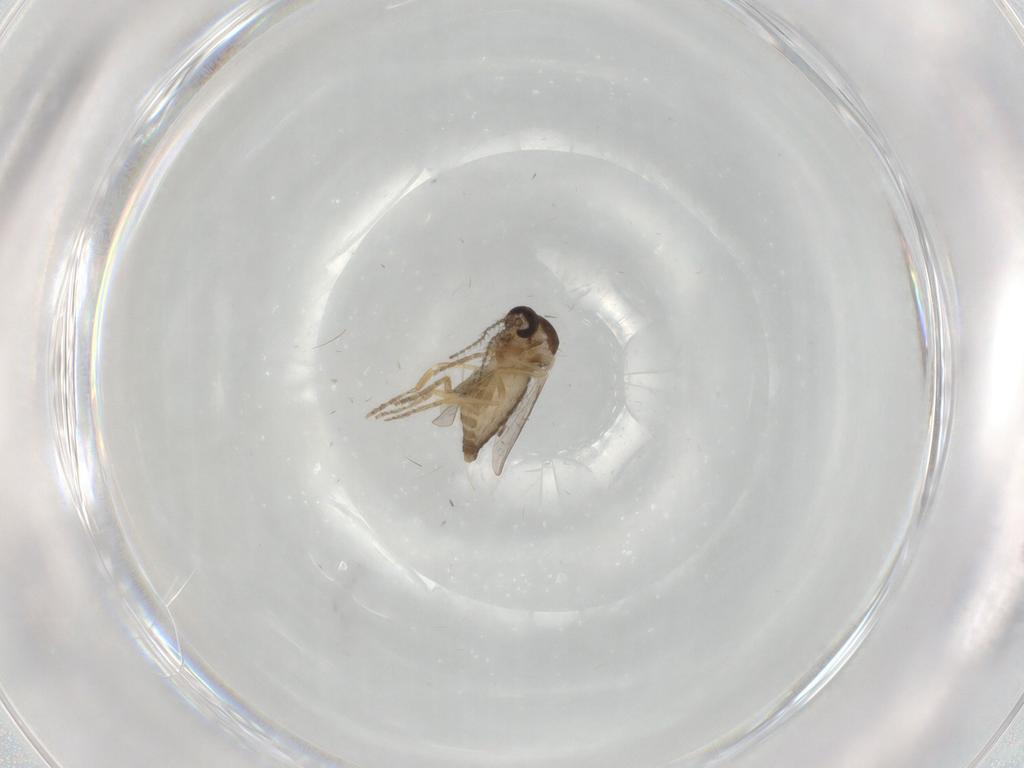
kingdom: Animalia
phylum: Arthropoda
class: Insecta
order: Diptera
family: Ceratopogonidae
